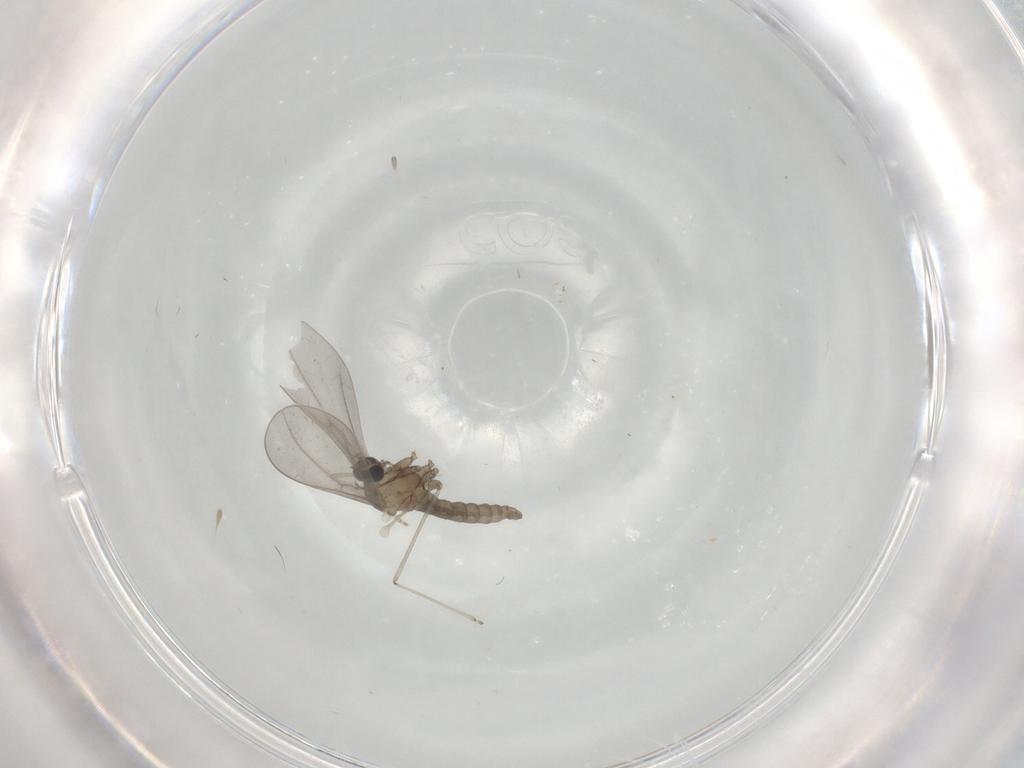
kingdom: Animalia
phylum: Arthropoda
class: Insecta
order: Diptera
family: Cecidomyiidae
